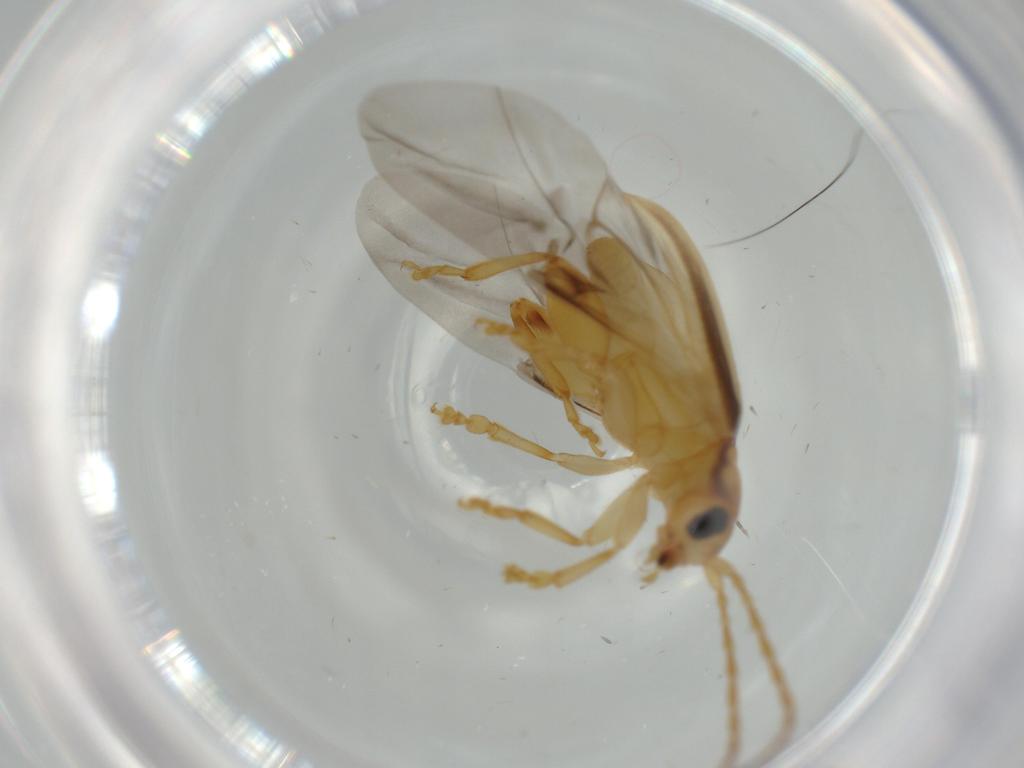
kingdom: Animalia
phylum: Arthropoda
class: Insecta
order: Coleoptera
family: Chrysomelidae
